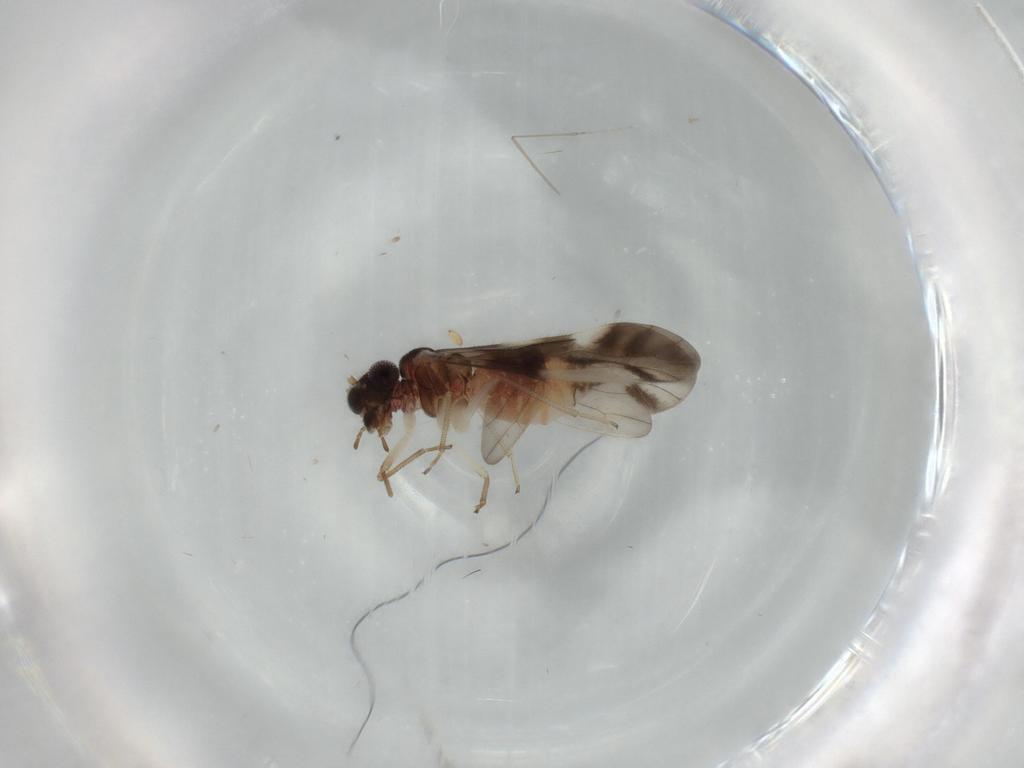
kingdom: Animalia
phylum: Arthropoda
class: Insecta
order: Psocodea
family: Caeciliusidae
